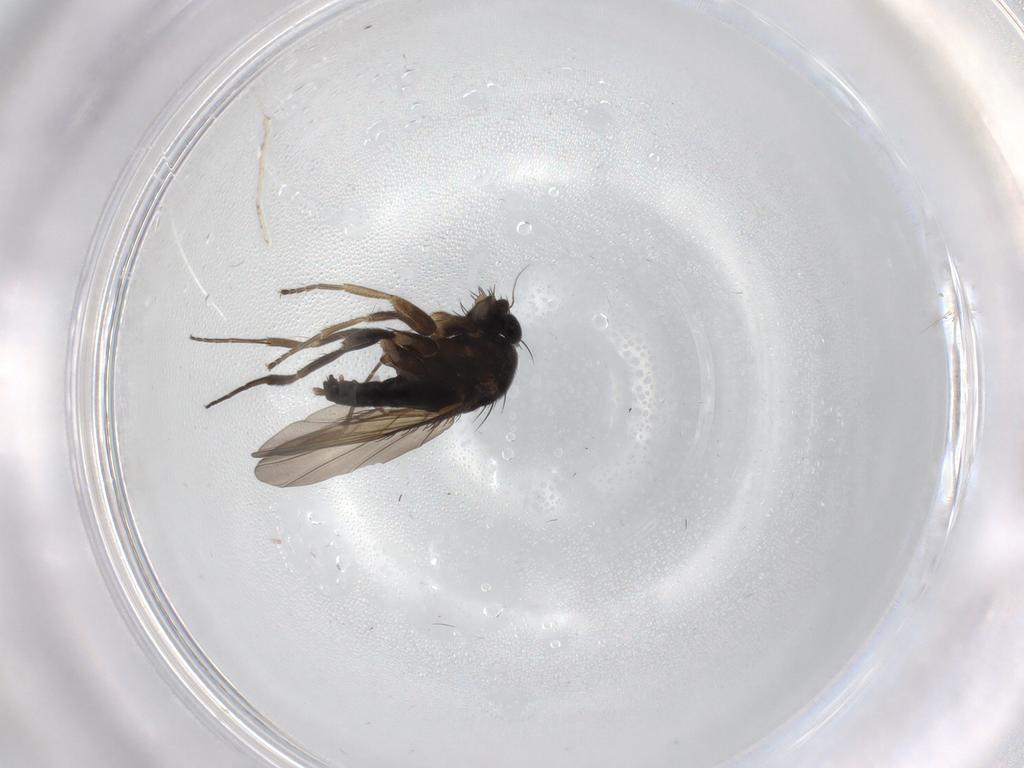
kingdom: Animalia
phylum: Arthropoda
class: Insecta
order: Diptera
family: Phoridae
